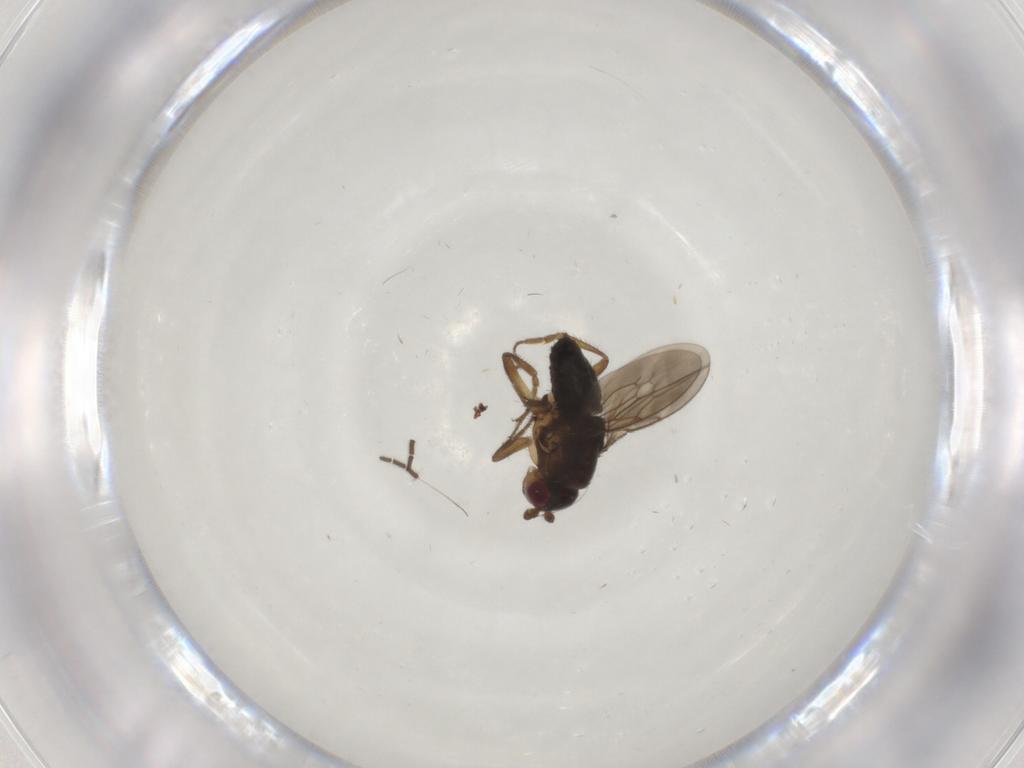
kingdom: Animalia
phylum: Arthropoda
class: Insecta
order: Diptera
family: Sphaeroceridae
